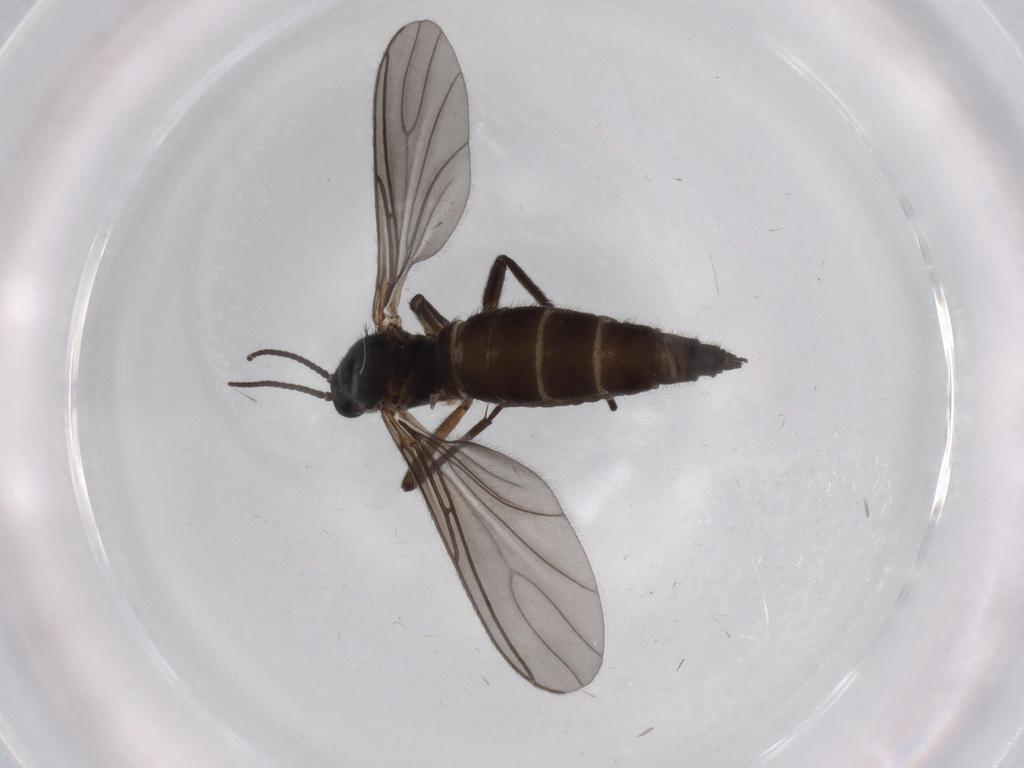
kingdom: Animalia
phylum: Arthropoda
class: Insecta
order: Diptera
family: Sciaridae
